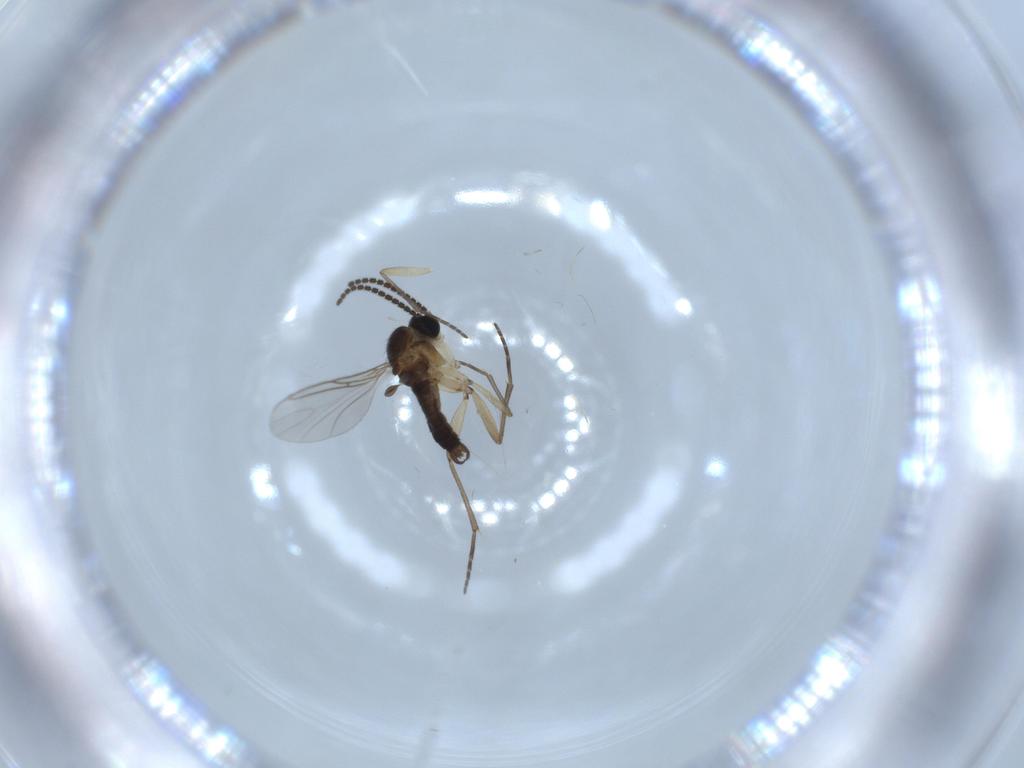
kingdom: Animalia
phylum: Arthropoda
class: Insecta
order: Diptera
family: Sciaridae
